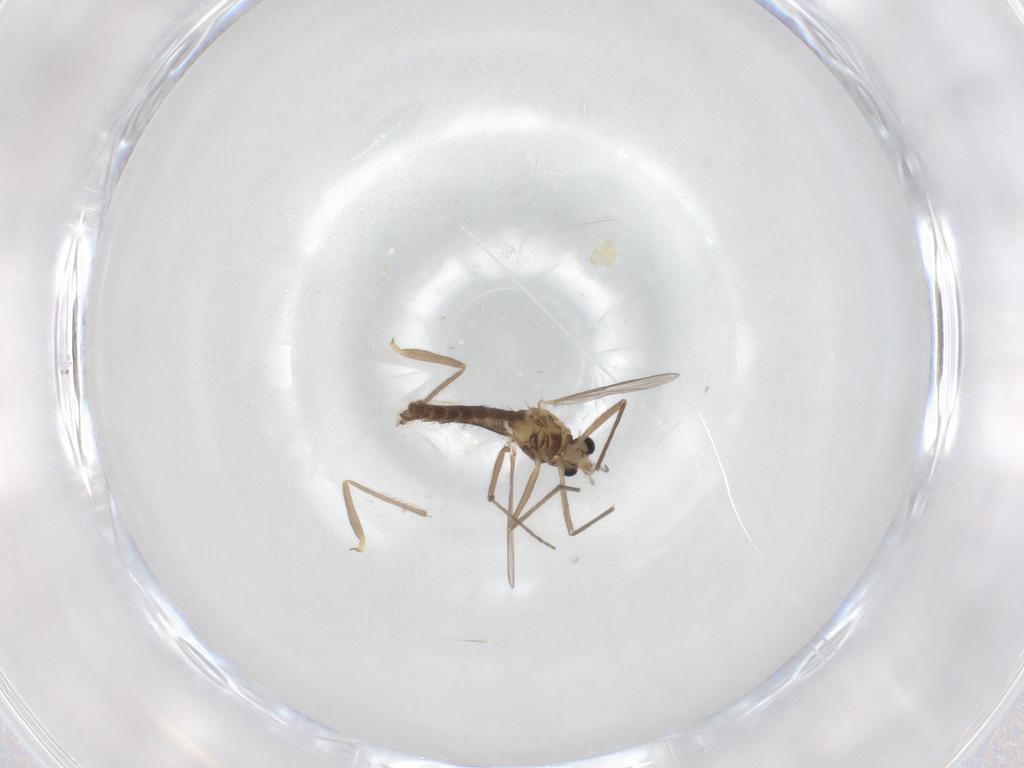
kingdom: Animalia
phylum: Arthropoda
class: Insecta
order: Diptera
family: Chironomidae
